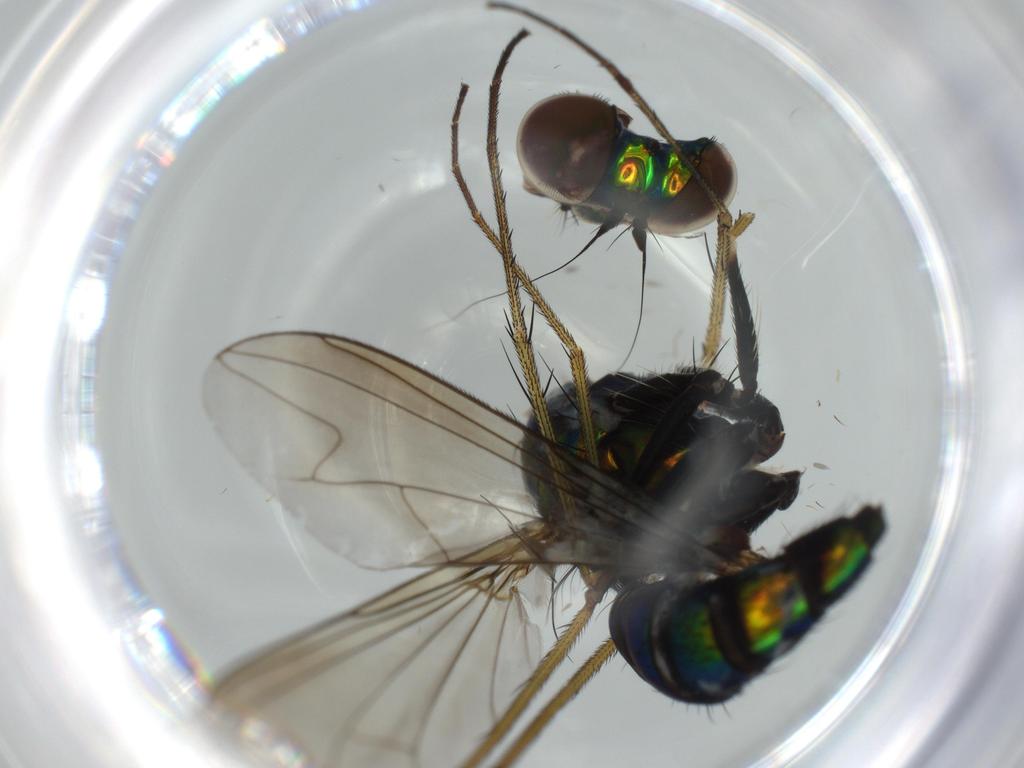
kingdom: Animalia
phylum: Arthropoda
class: Insecta
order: Diptera
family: Dolichopodidae
